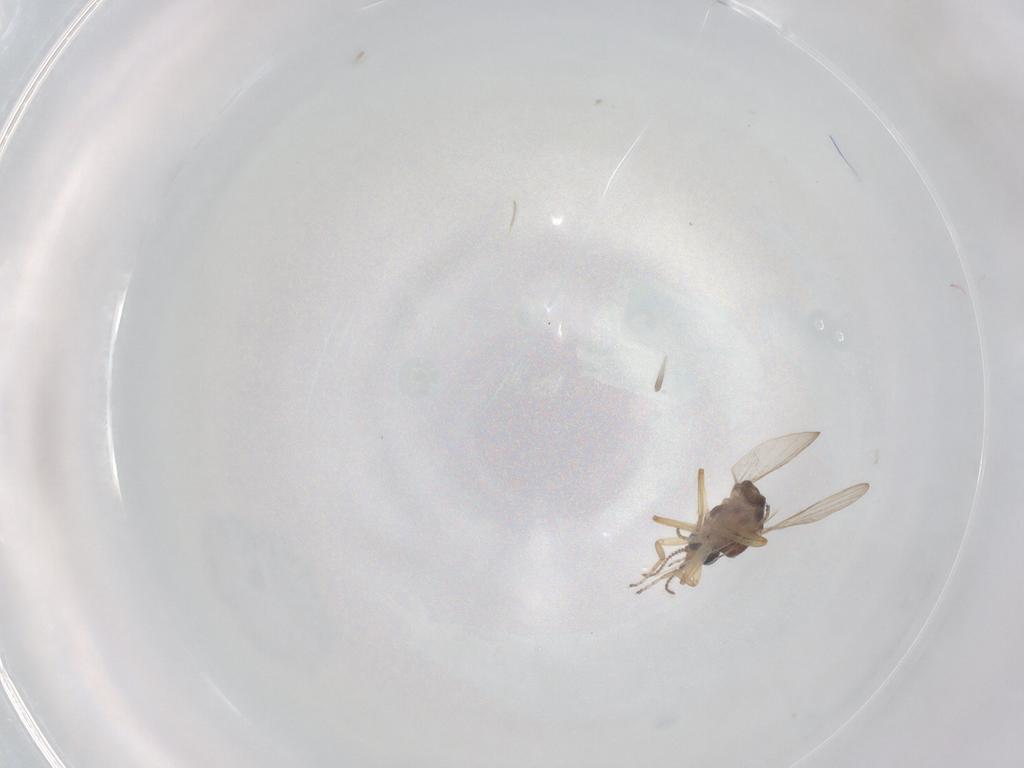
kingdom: Animalia
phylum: Arthropoda
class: Insecta
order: Diptera
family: Ceratopogonidae
